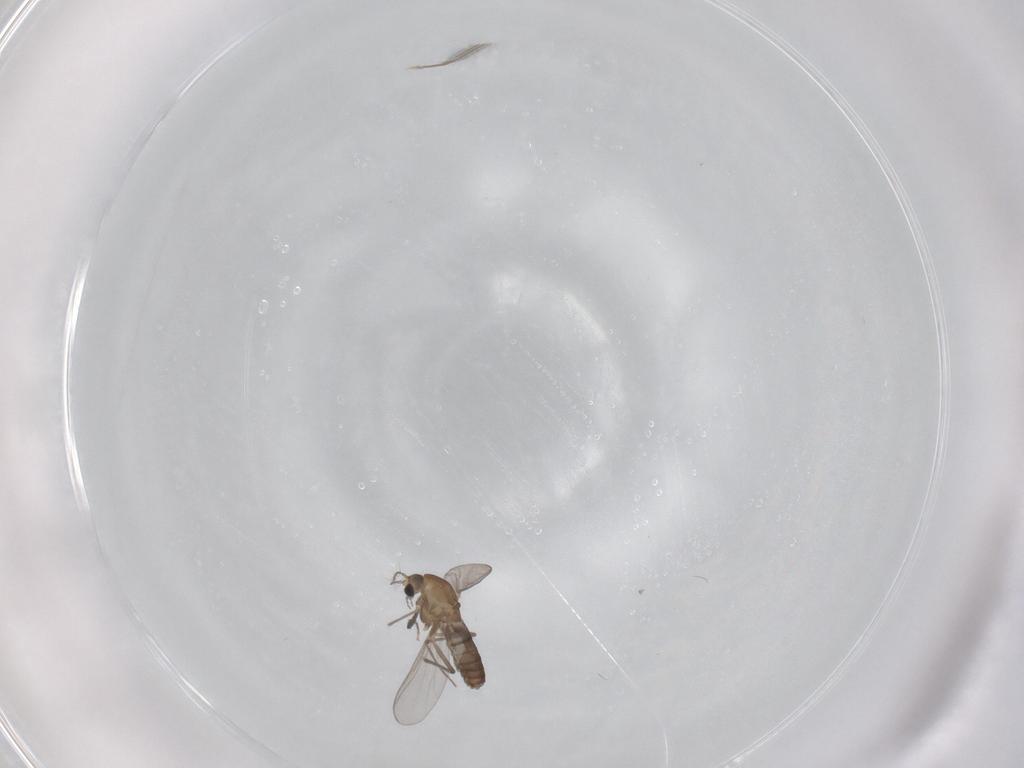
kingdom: Animalia
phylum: Arthropoda
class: Insecta
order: Diptera
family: Chironomidae
